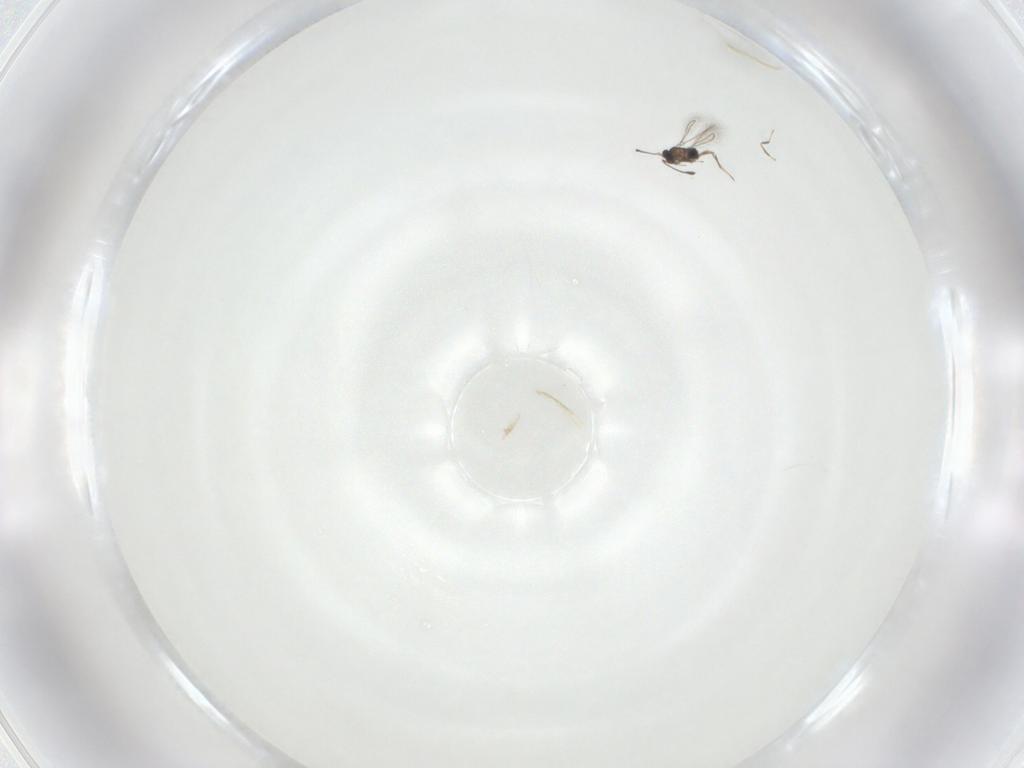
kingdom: Animalia
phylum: Arthropoda
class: Insecta
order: Hymenoptera
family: Mymaridae
